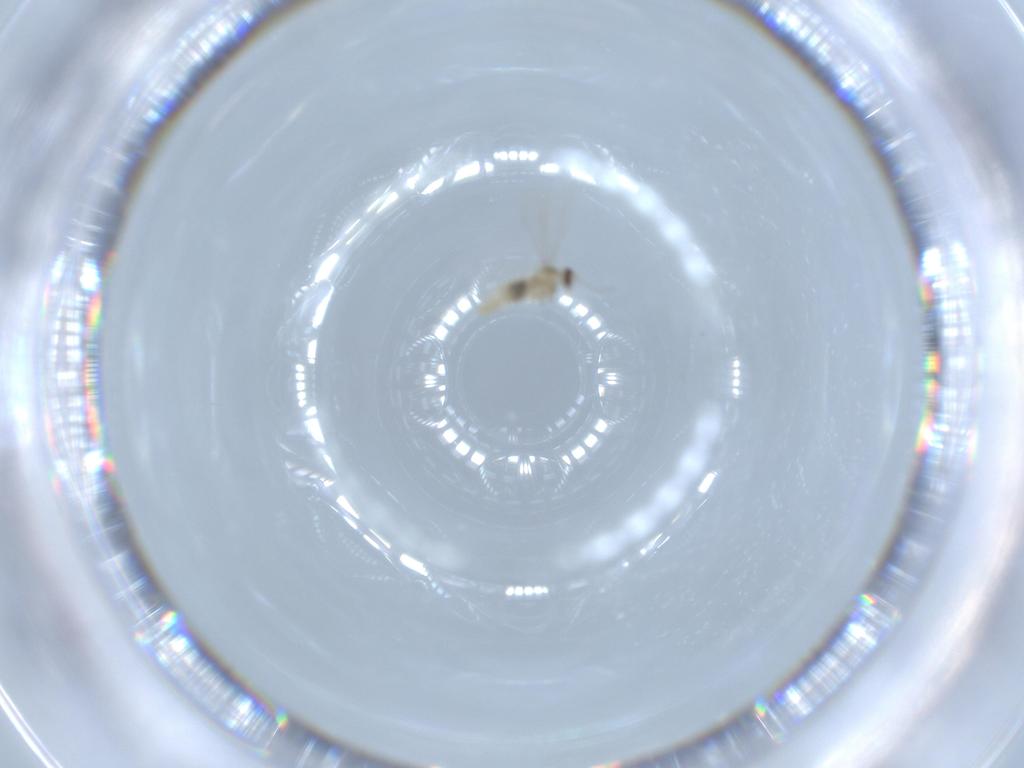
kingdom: Animalia
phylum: Arthropoda
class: Insecta
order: Diptera
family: Cecidomyiidae
